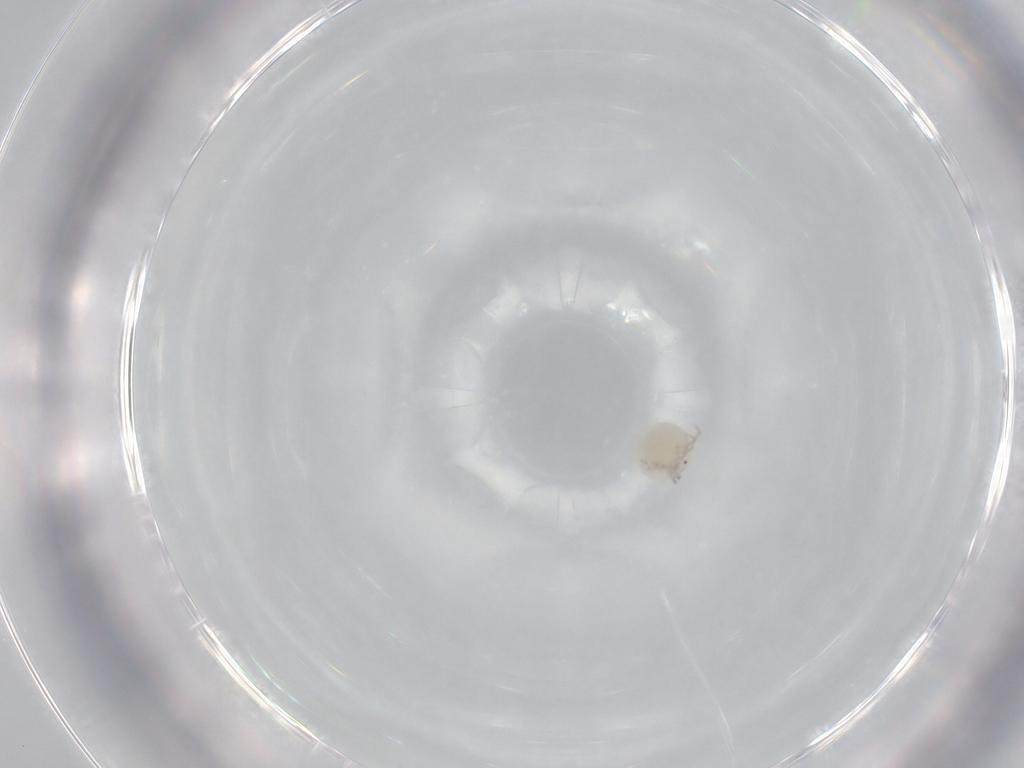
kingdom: Animalia
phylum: Arthropoda
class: Arachnida
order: Trombidiformes
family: Lebertiidae
